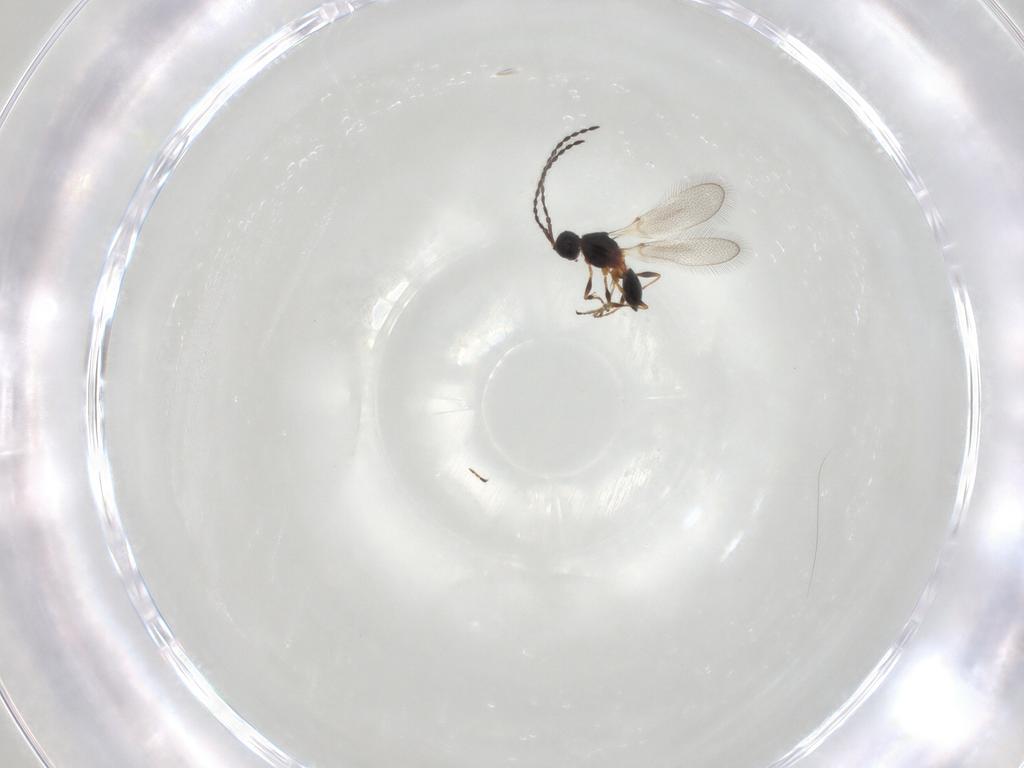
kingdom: Animalia
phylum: Arthropoda
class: Insecta
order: Hymenoptera
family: Diapriidae
